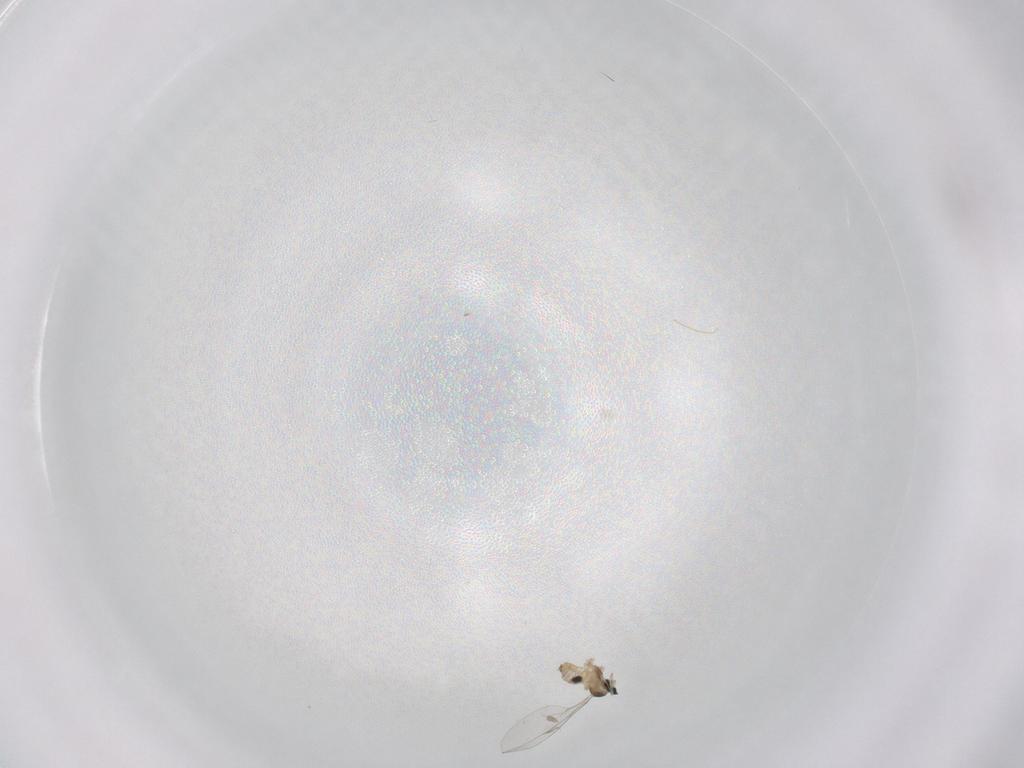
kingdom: Animalia
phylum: Arthropoda
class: Insecta
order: Diptera
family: Cecidomyiidae
